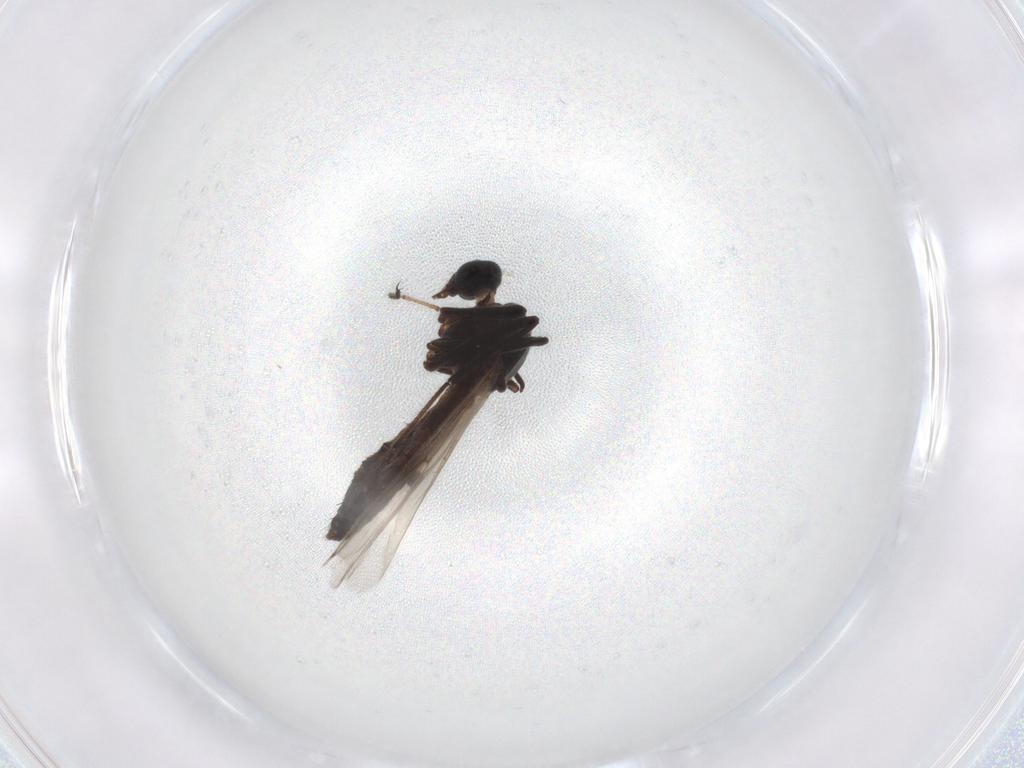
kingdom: Animalia
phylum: Arthropoda
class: Insecta
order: Diptera
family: Ceratopogonidae
